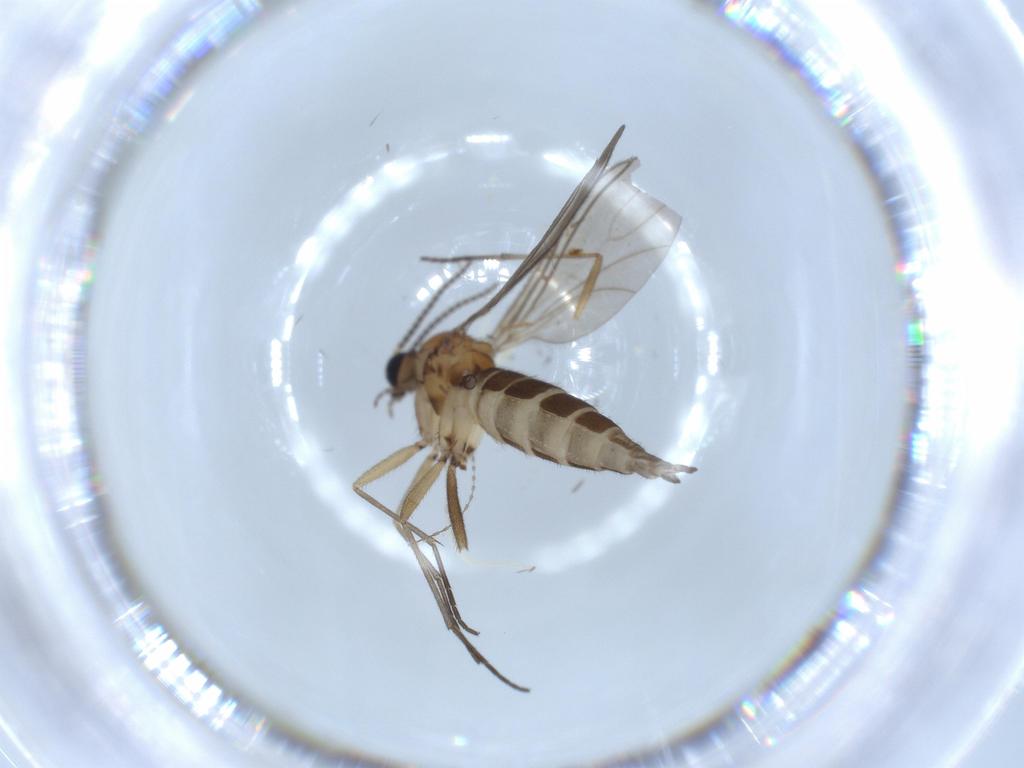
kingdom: Animalia
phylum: Arthropoda
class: Insecta
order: Diptera
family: Sciaridae
